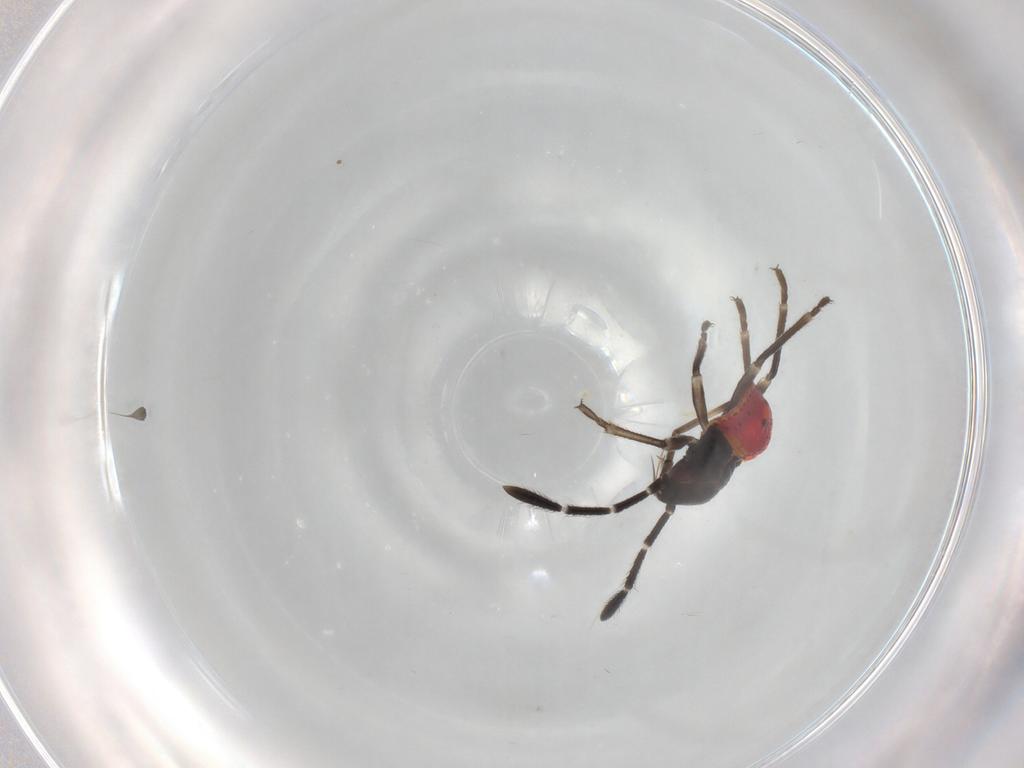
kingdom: Animalia
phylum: Arthropoda
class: Insecta
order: Hemiptera
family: Lygaeidae
